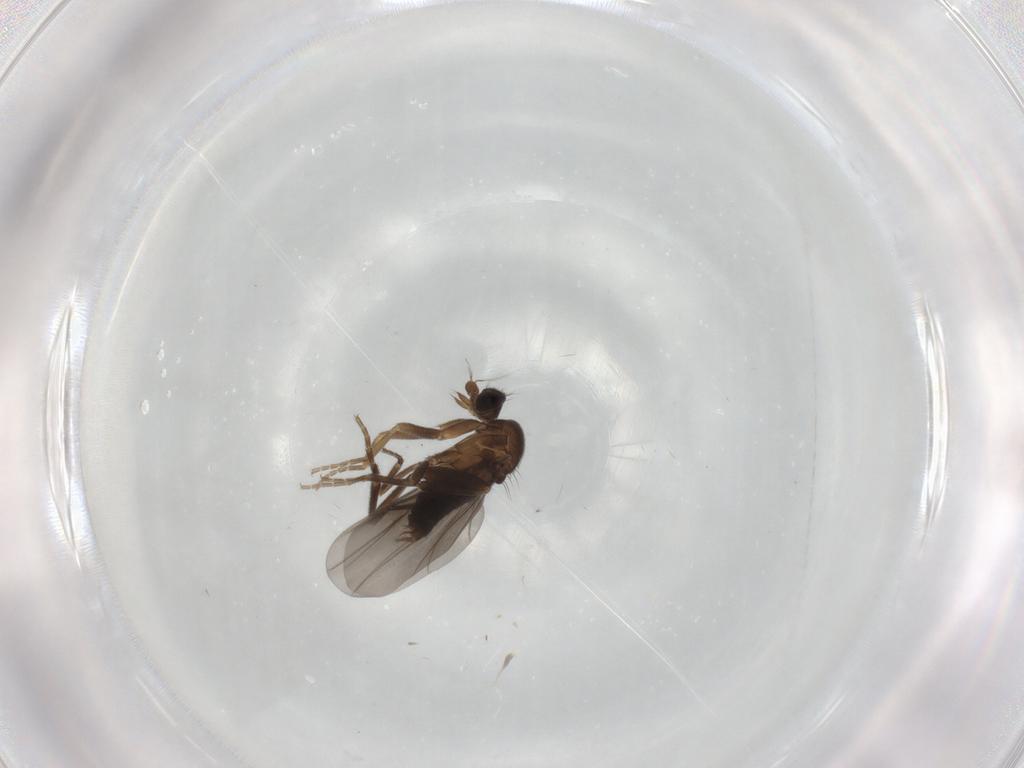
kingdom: Animalia
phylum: Arthropoda
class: Insecta
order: Diptera
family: Phoridae
